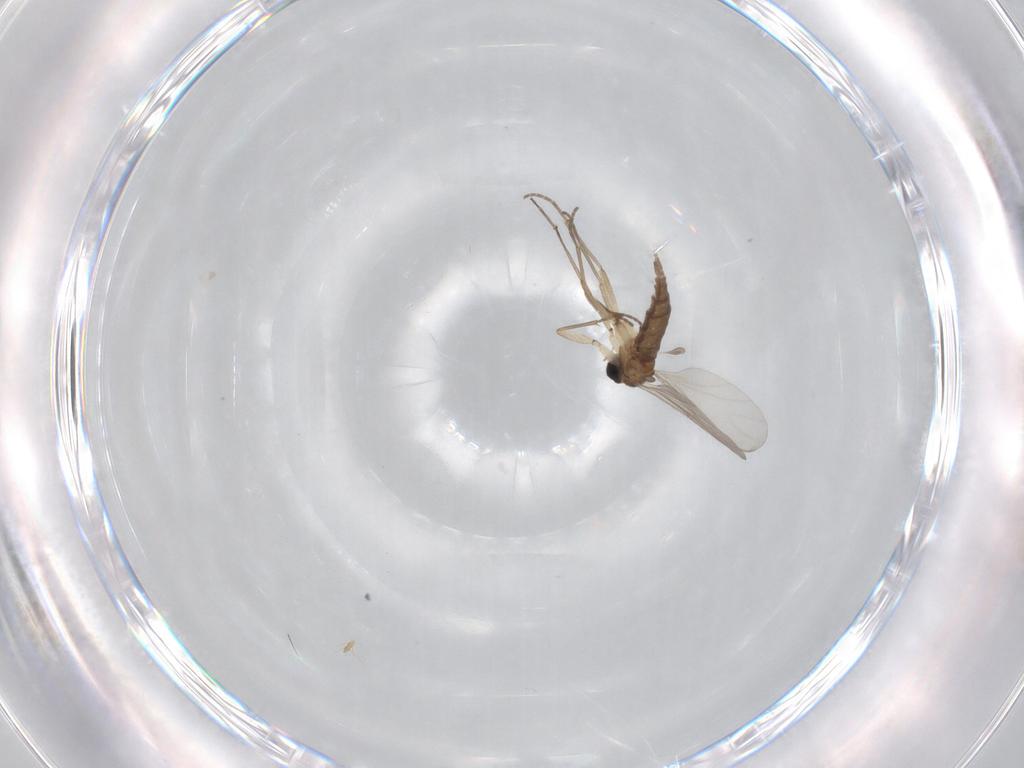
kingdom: Animalia
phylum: Arthropoda
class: Insecta
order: Diptera
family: Sciaridae
